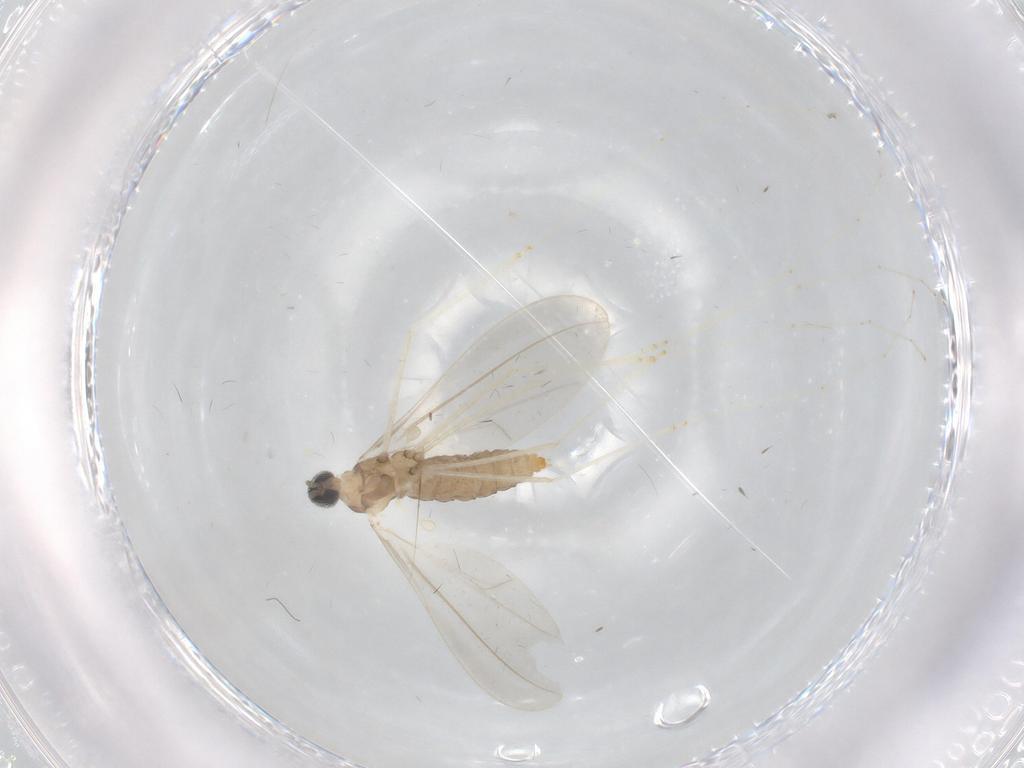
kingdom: Animalia
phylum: Arthropoda
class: Insecta
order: Diptera
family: Cecidomyiidae
